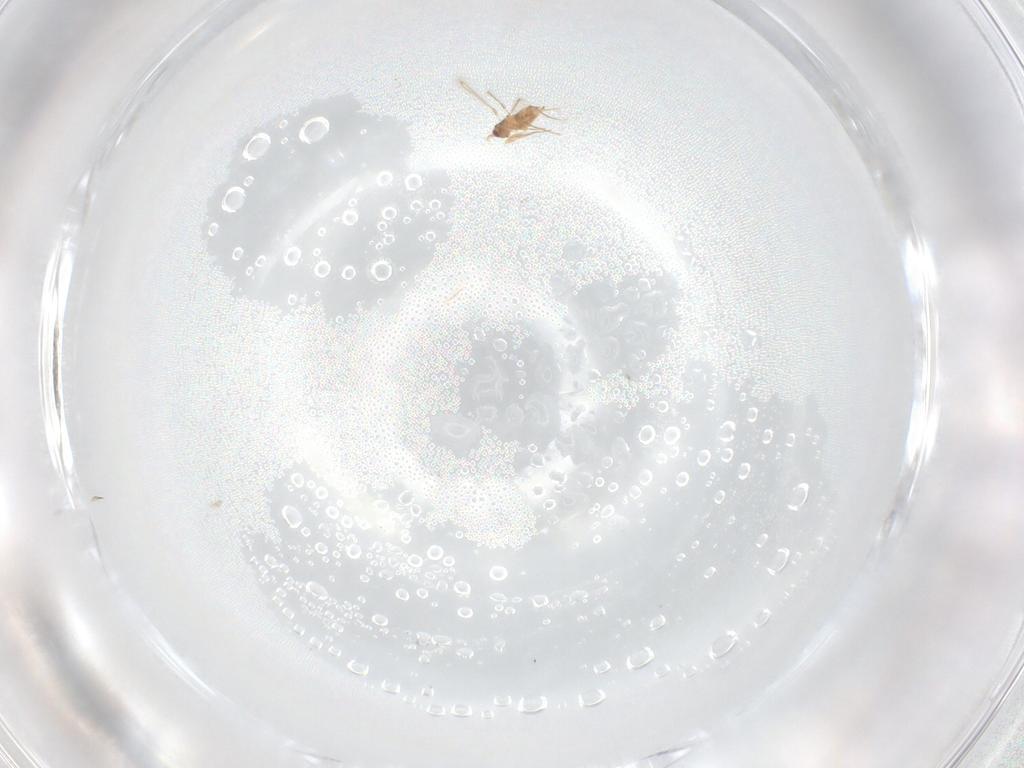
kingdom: Animalia
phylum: Arthropoda
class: Insecta
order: Hymenoptera
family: Mymaridae
